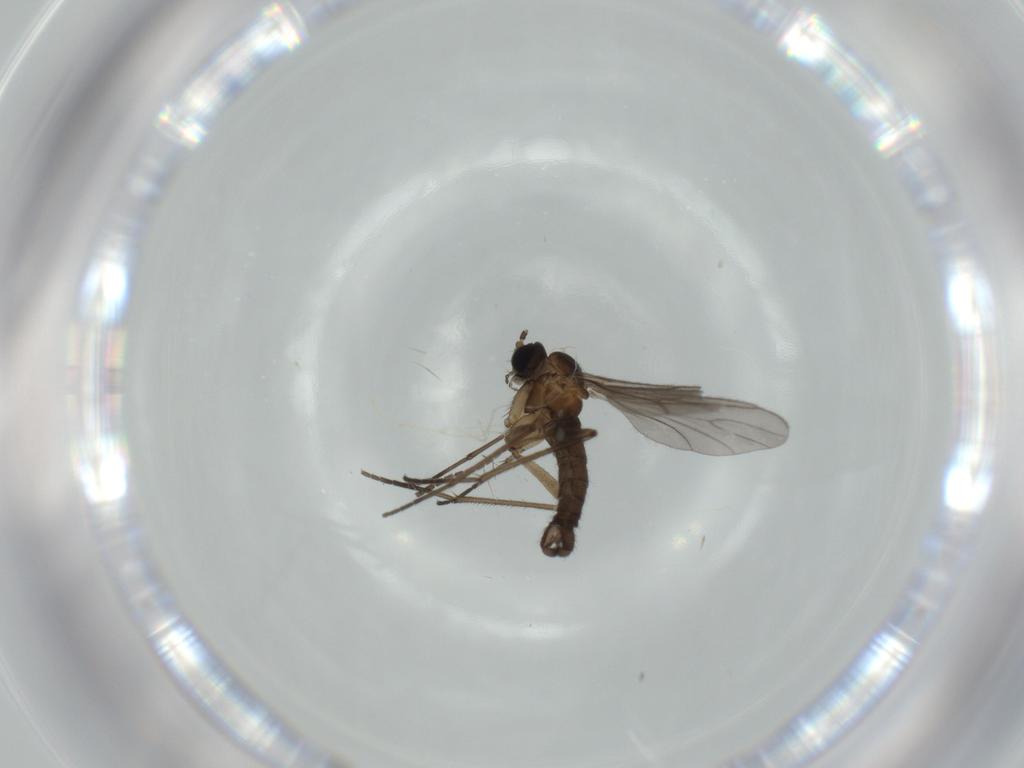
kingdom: Animalia
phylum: Arthropoda
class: Insecta
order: Diptera
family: Sciaridae
